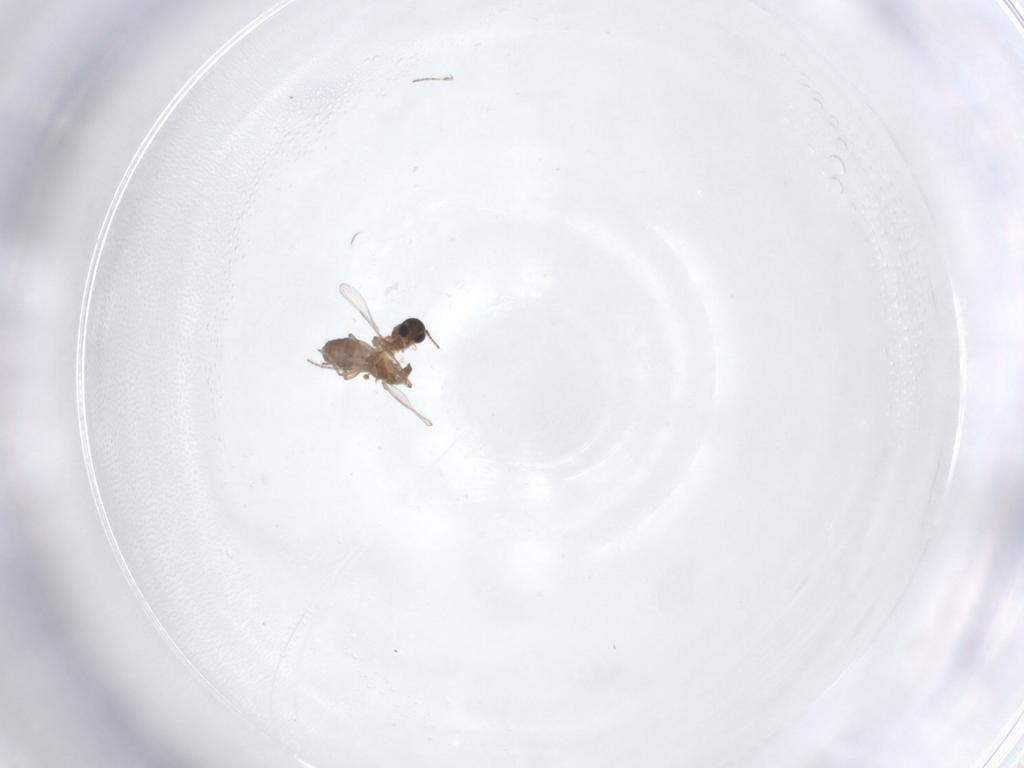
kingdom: Animalia
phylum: Arthropoda
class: Insecta
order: Diptera
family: Ceratopogonidae
